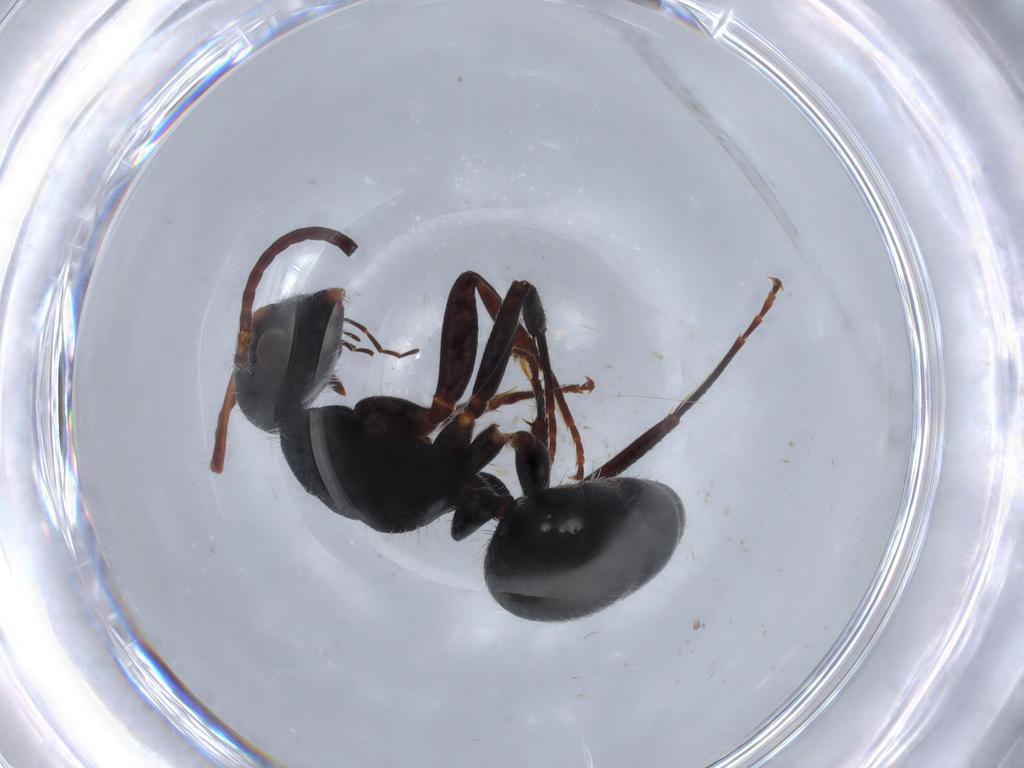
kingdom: Animalia
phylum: Arthropoda
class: Insecta
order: Hymenoptera
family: Formicidae
